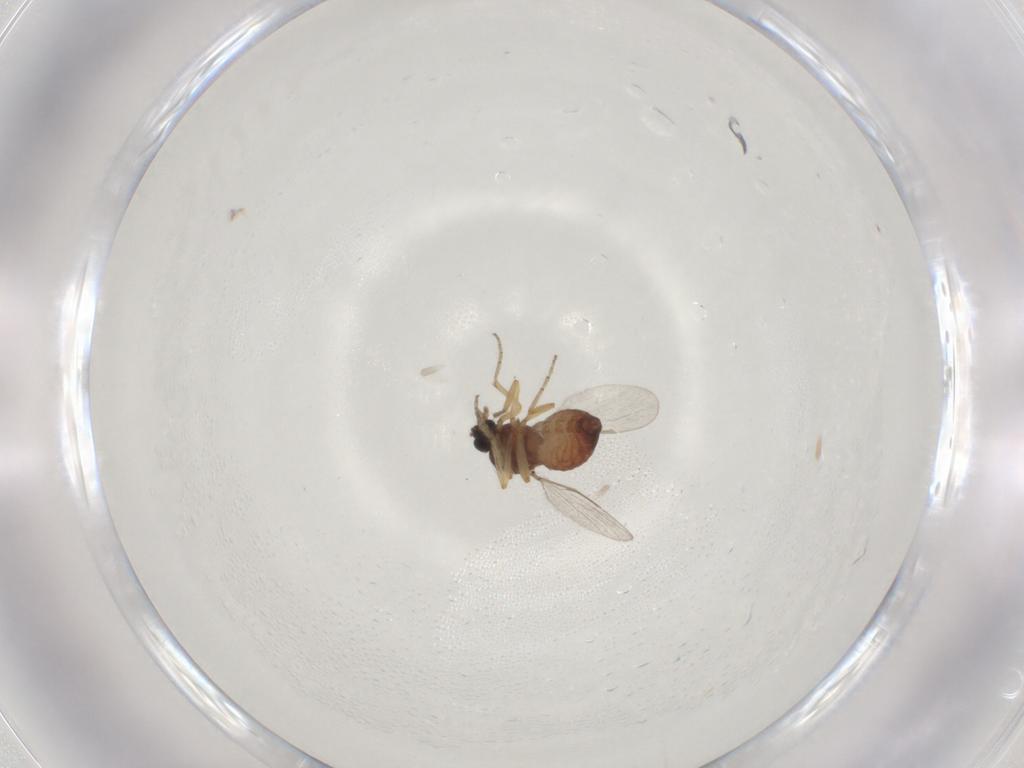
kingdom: Animalia
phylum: Arthropoda
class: Insecta
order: Diptera
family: Ceratopogonidae
